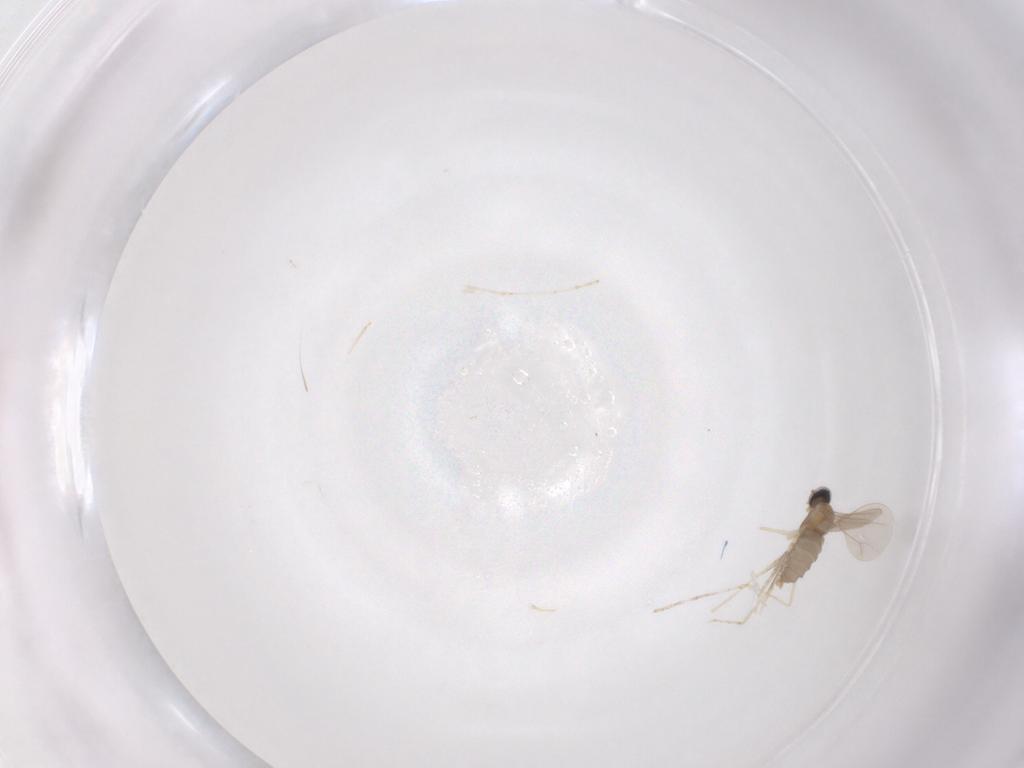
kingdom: Animalia
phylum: Arthropoda
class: Insecta
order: Diptera
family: Cecidomyiidae
